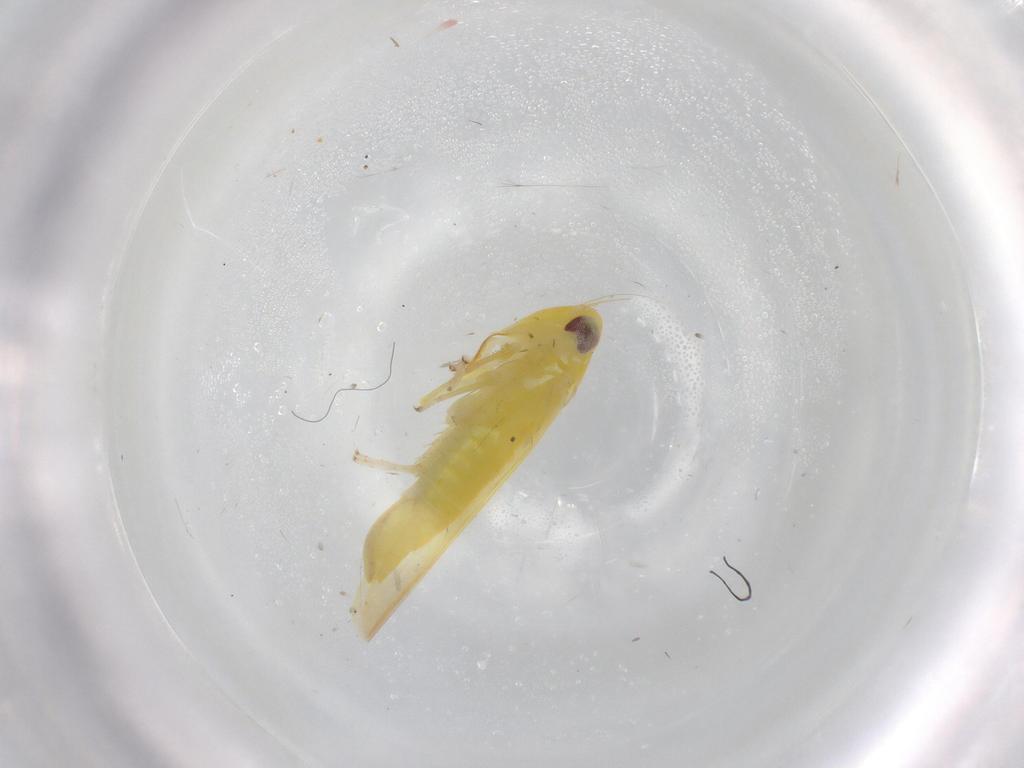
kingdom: Animalia
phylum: Arthropoda
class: Insecta
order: Hemiptera
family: Cicadellidae
